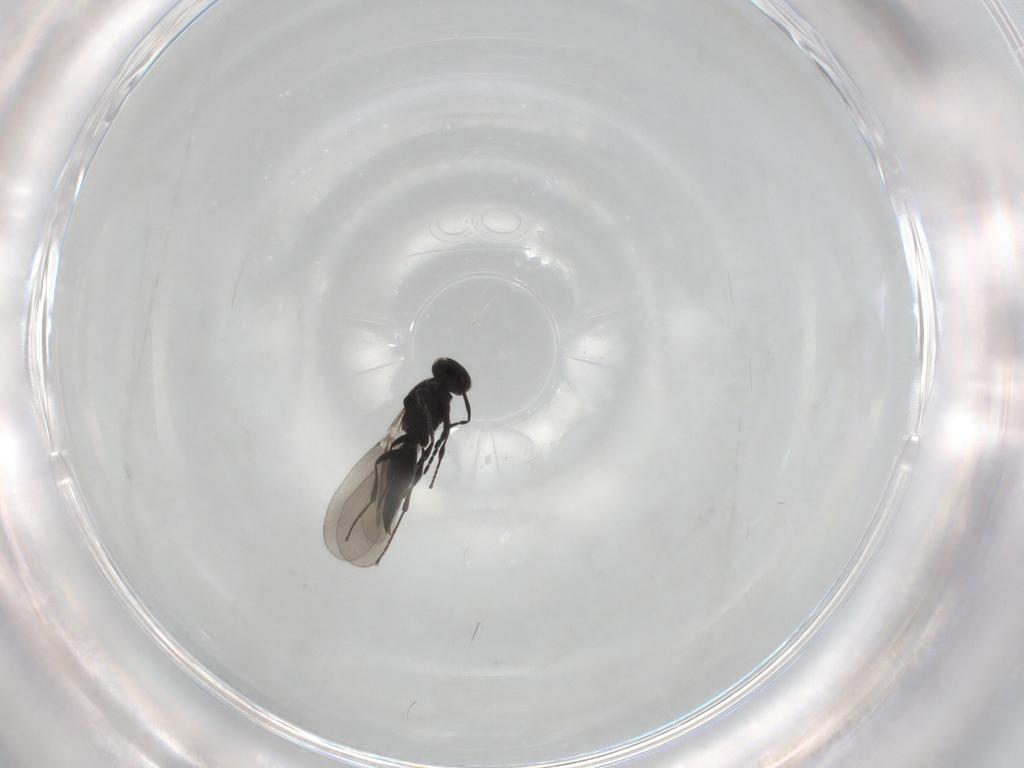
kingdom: Animalia
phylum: Arthropoda
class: Insecta
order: Hymenoptera
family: Platygastridae
